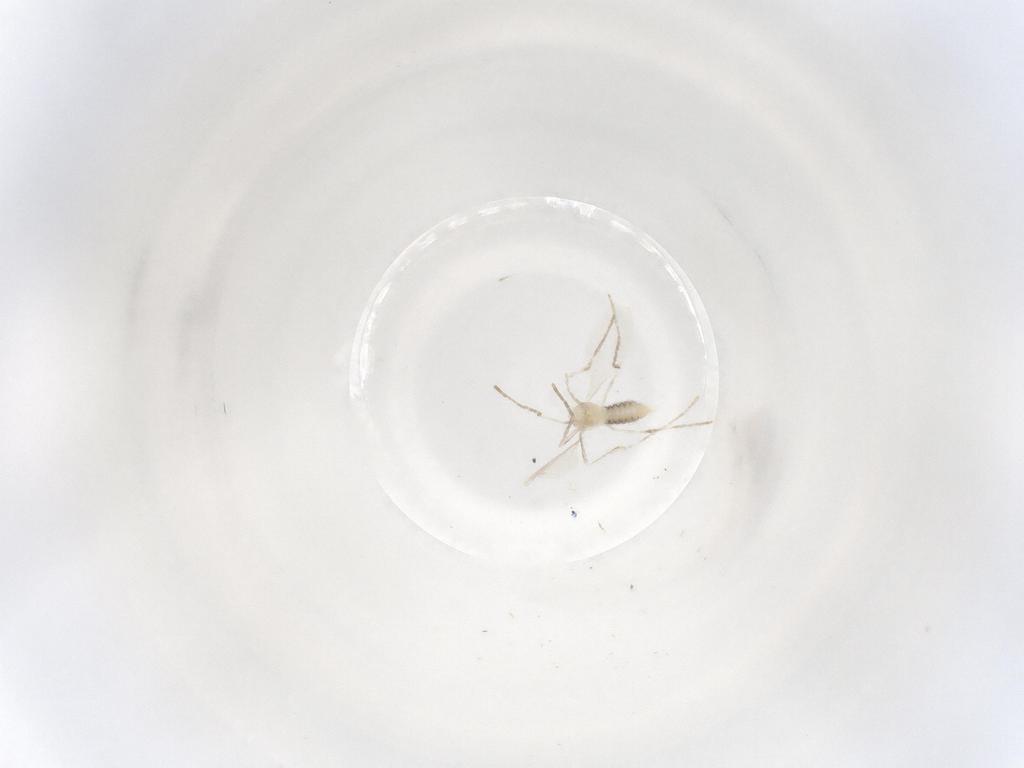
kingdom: Animalia
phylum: Arthropoda
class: Insecta
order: Diptera
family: Cecidomyiidae
